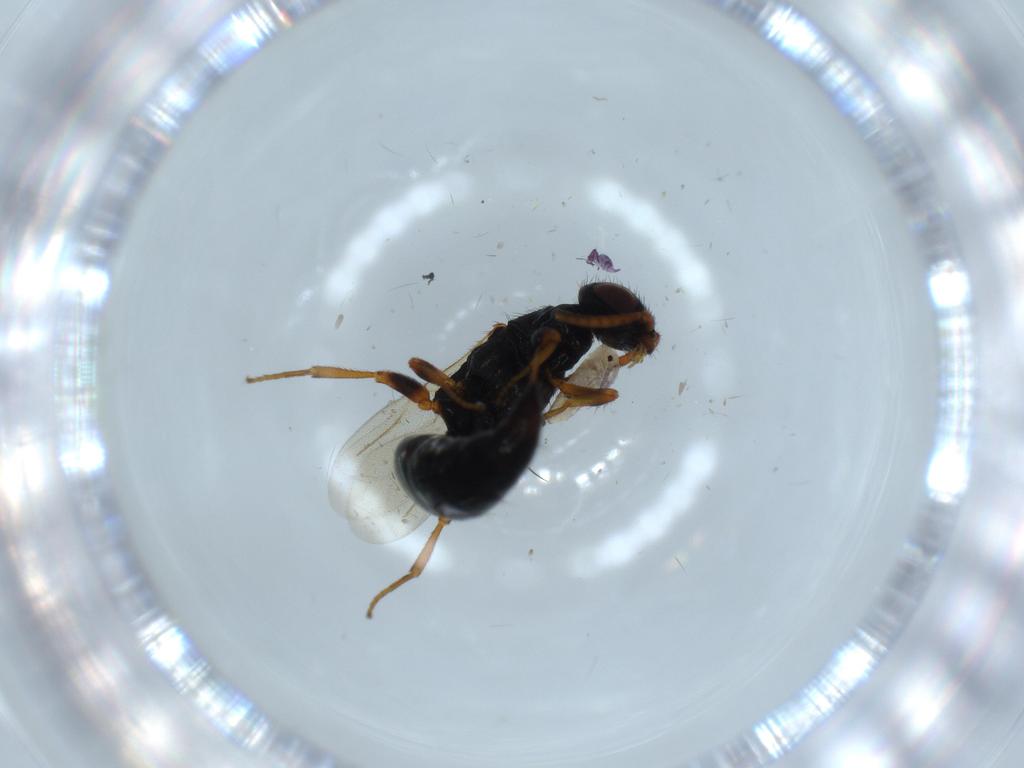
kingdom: Animalia
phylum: Arthropoda
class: Insecta
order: Hymenoptera
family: Bethylidae
